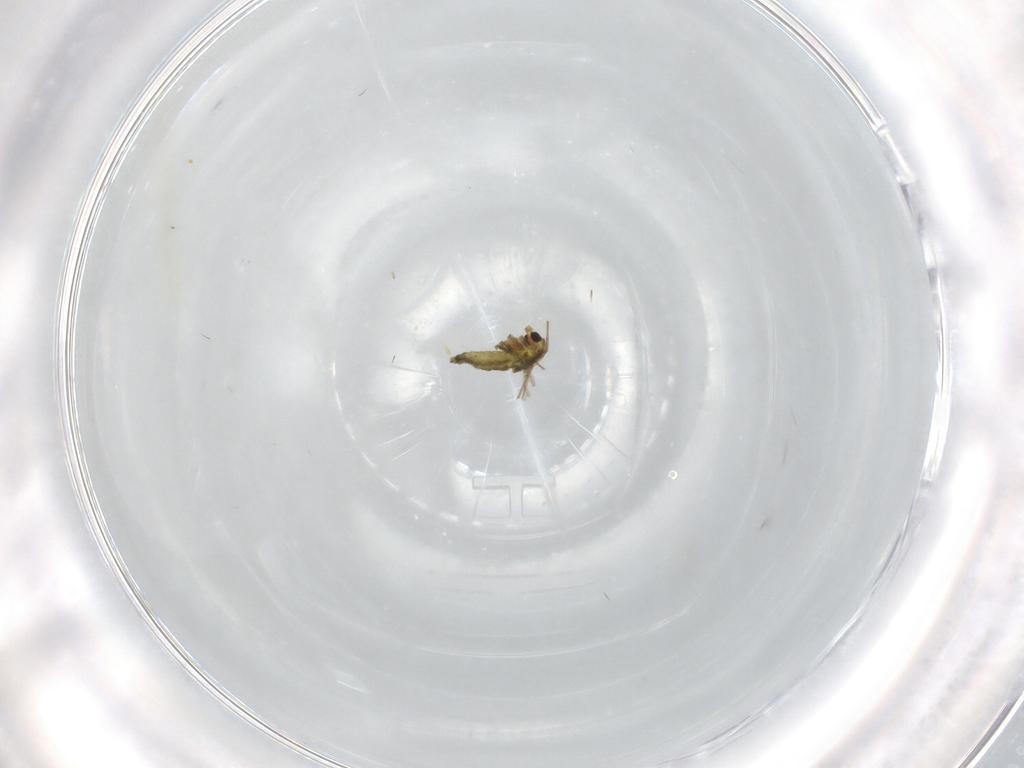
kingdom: Animalia
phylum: Arthropoda
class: Insecta
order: Diptera
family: Chironomidae
